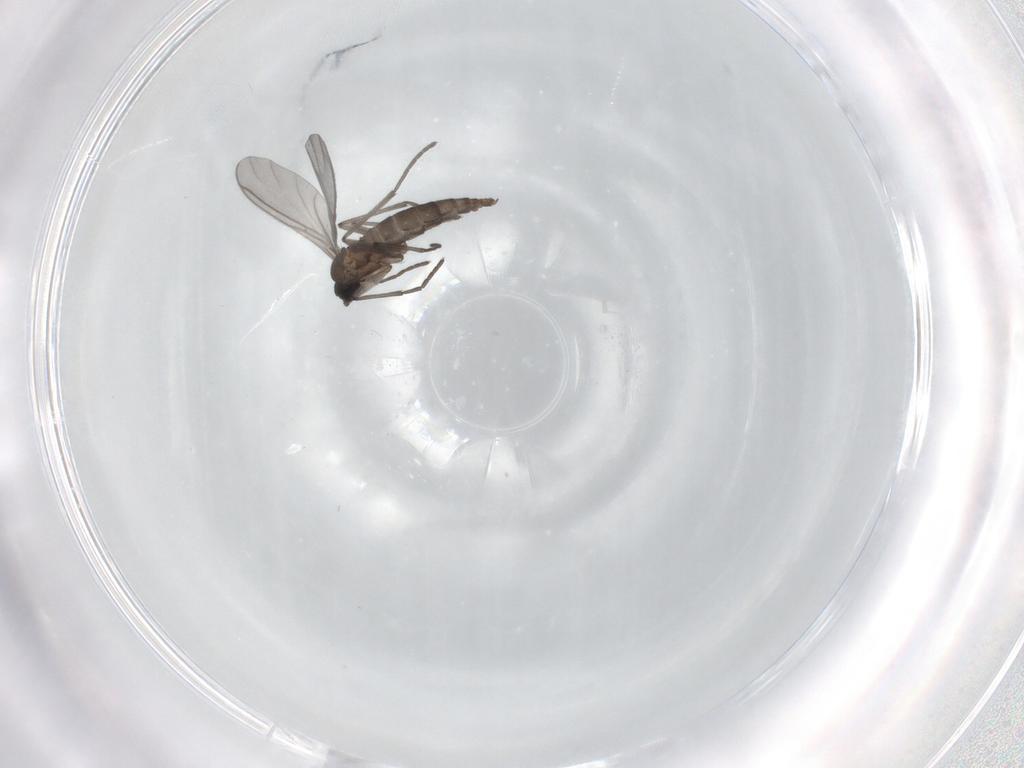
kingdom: Animalia
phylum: Arthropoda
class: Insecta
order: Diptera
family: Sciaridae
